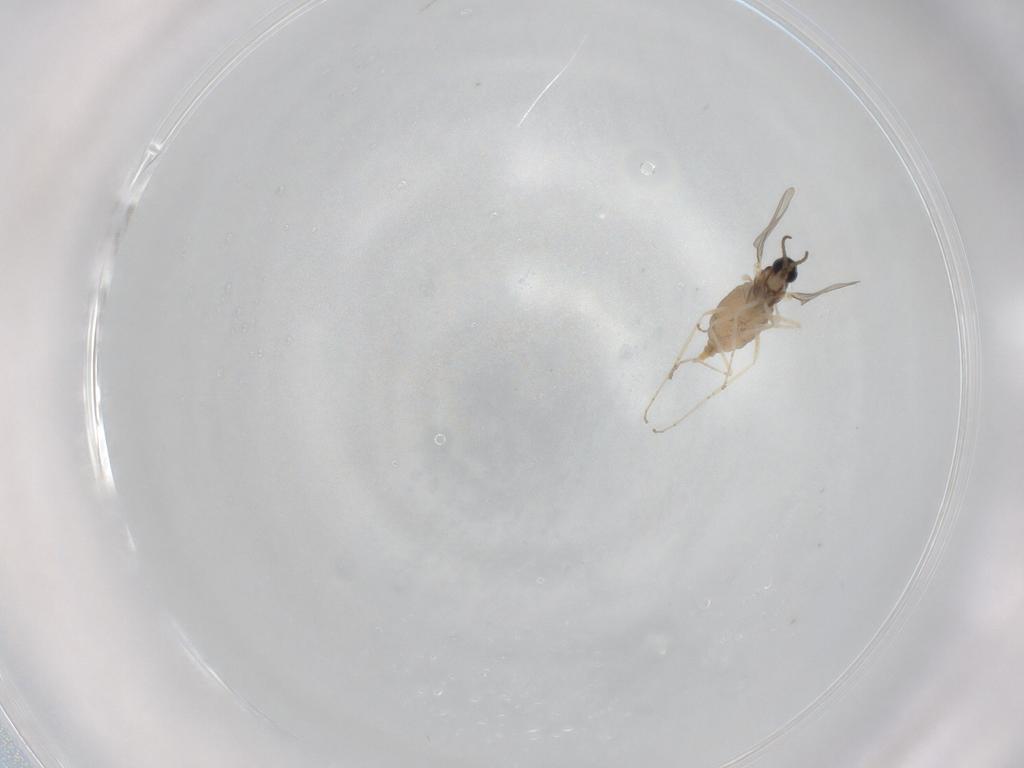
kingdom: Animalia
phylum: Arthropoda
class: Insecta
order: Diptera
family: Cecidomyiidae
